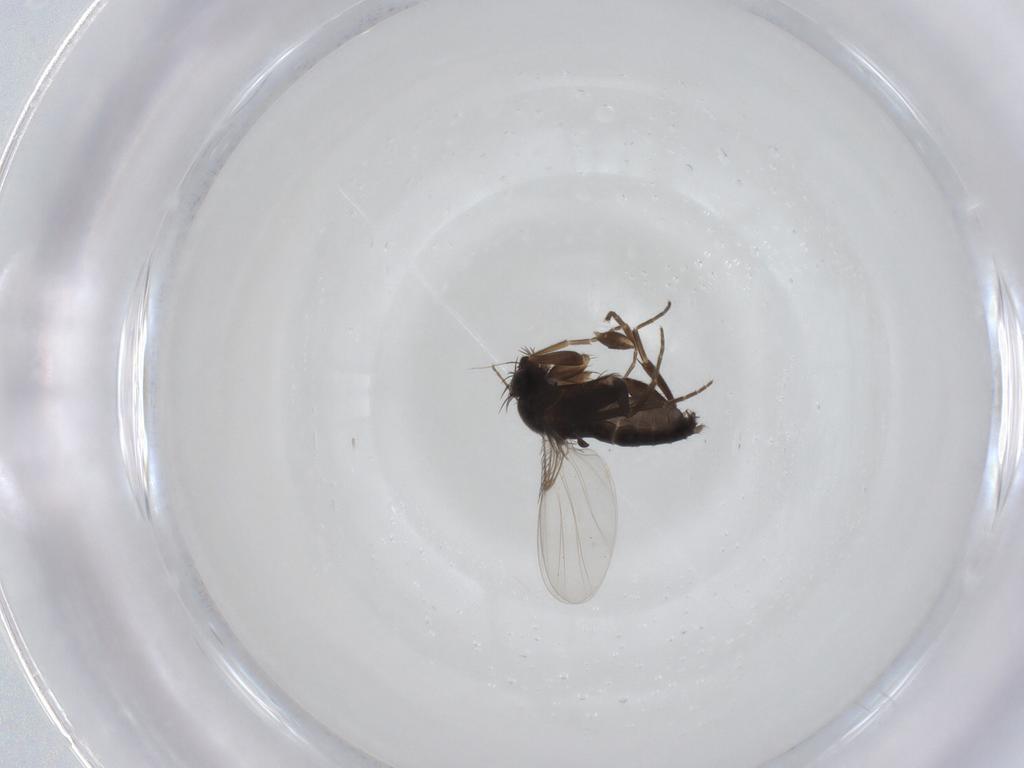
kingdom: Animalia
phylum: Arthropoda
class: Insecta
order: Diptera
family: Phoridae
